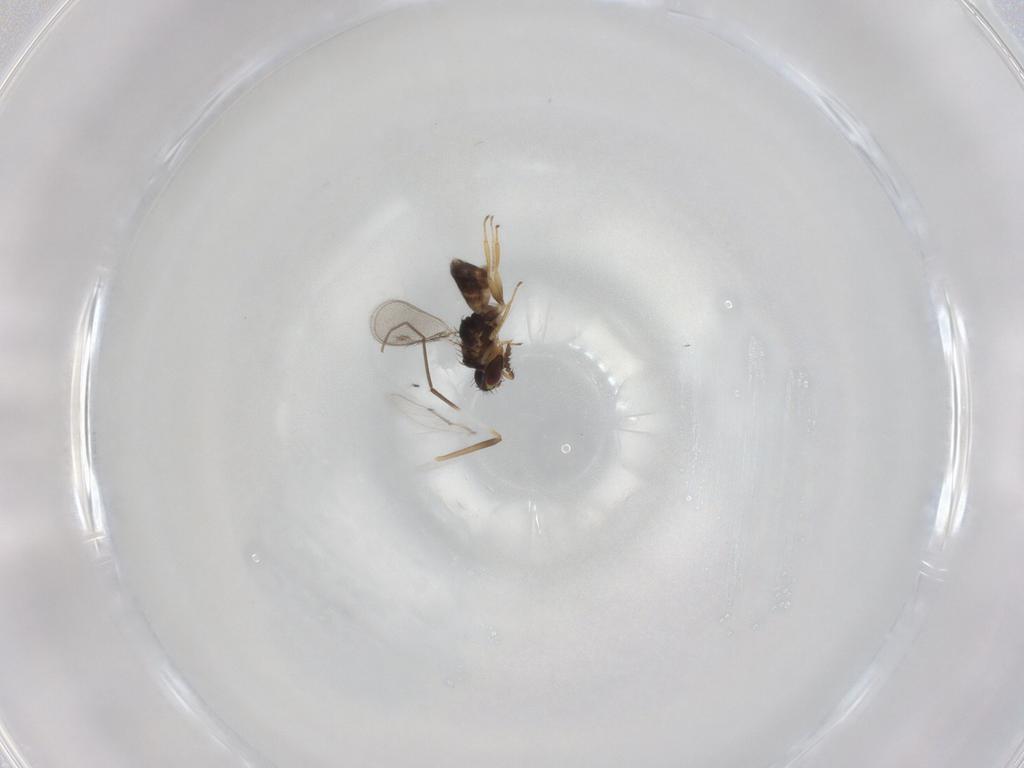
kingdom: Animalia
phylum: Arthropoda
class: Insecta
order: Hymenoptera
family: Eulophidae
